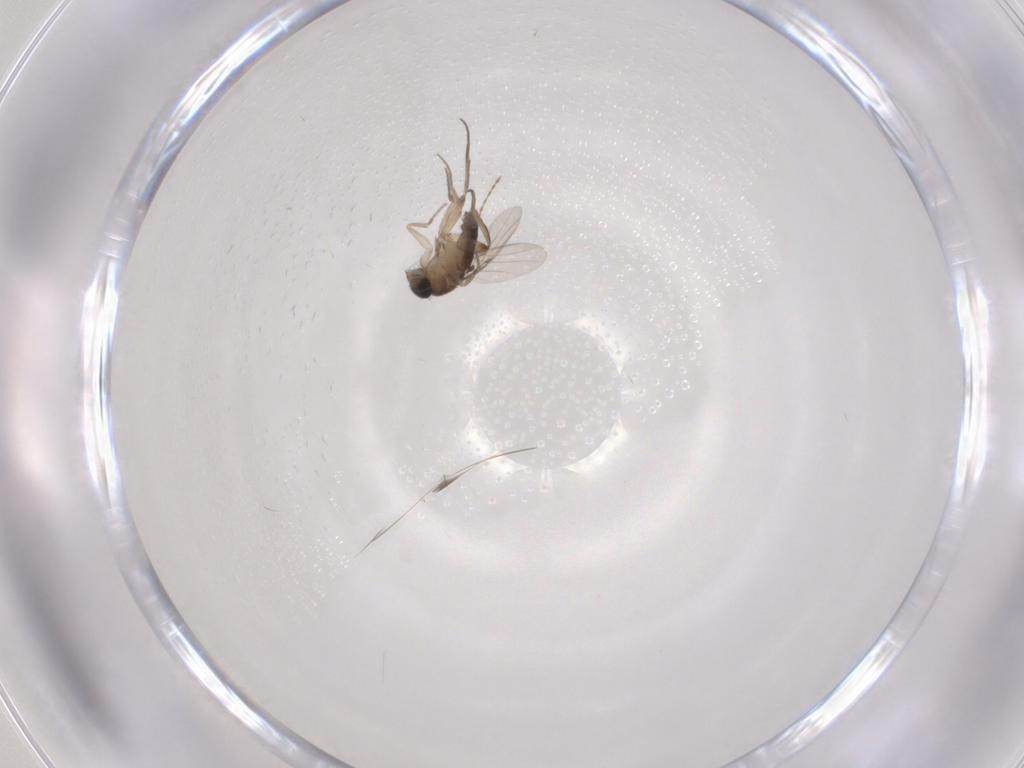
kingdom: Animalia
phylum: Arthropoda
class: Insecta
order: Diptera
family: Phoridae
